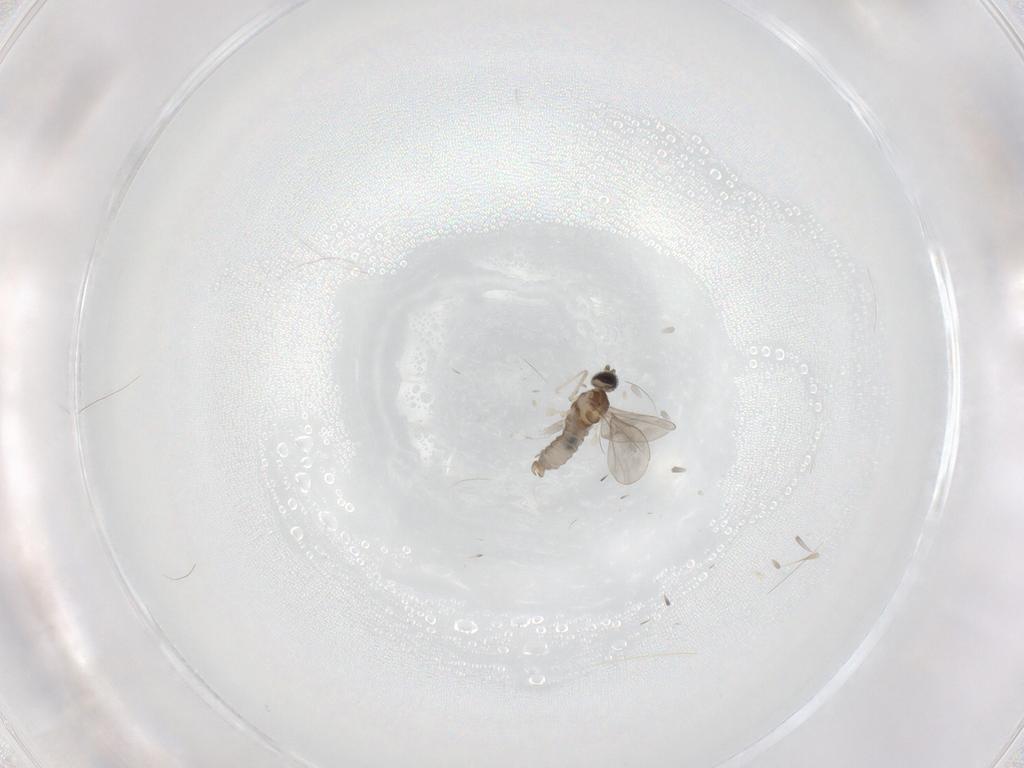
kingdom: Animalia
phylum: Arthropoda
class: Insecta
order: Diptera
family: Cecidomyiidae
